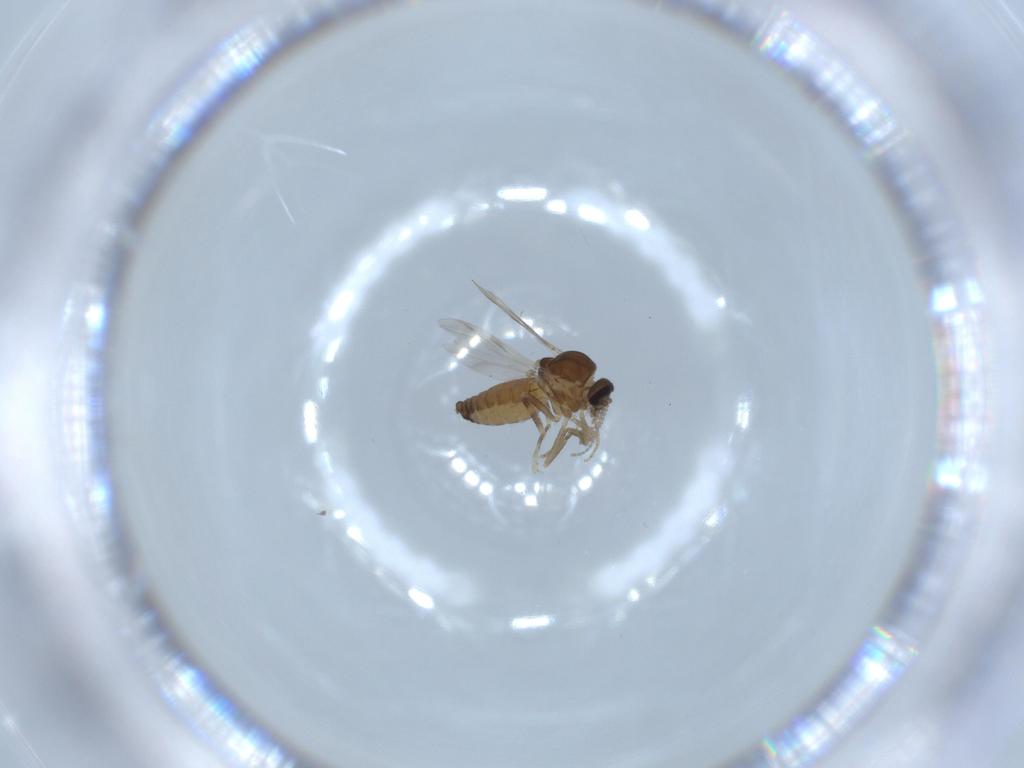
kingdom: Animalia
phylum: Arthropoda
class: Insecta
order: Diptera
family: Ceratopogonidae
